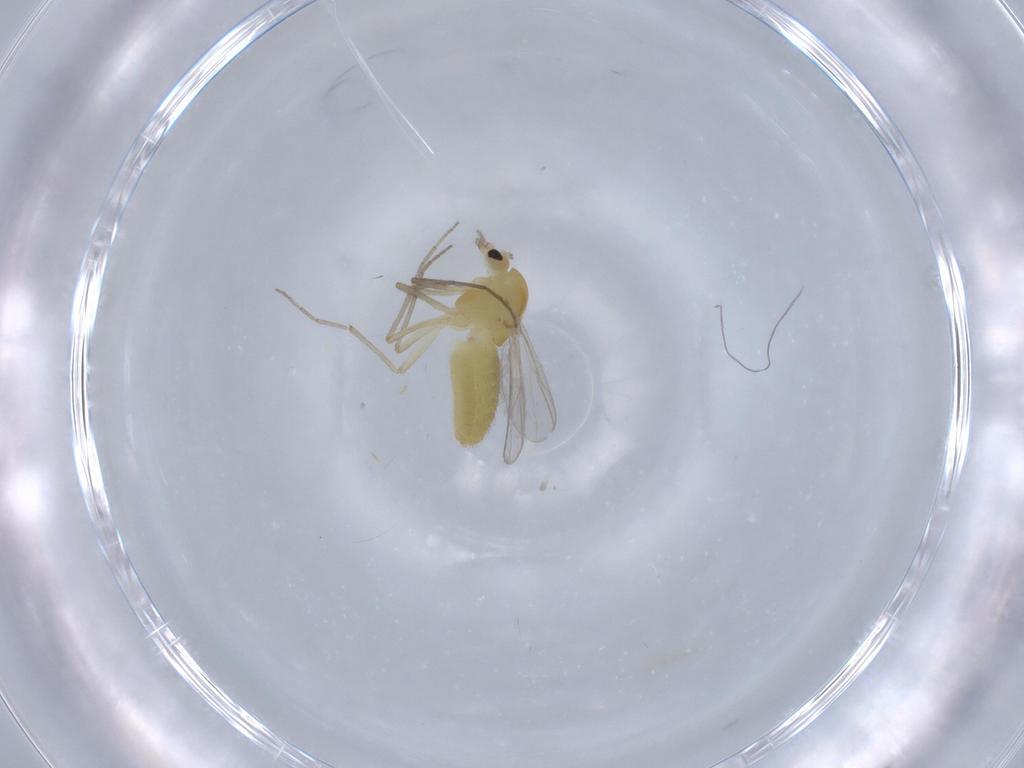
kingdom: Animalia
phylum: Arthropoda
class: Insecta
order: Diptera
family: Chironomidae
